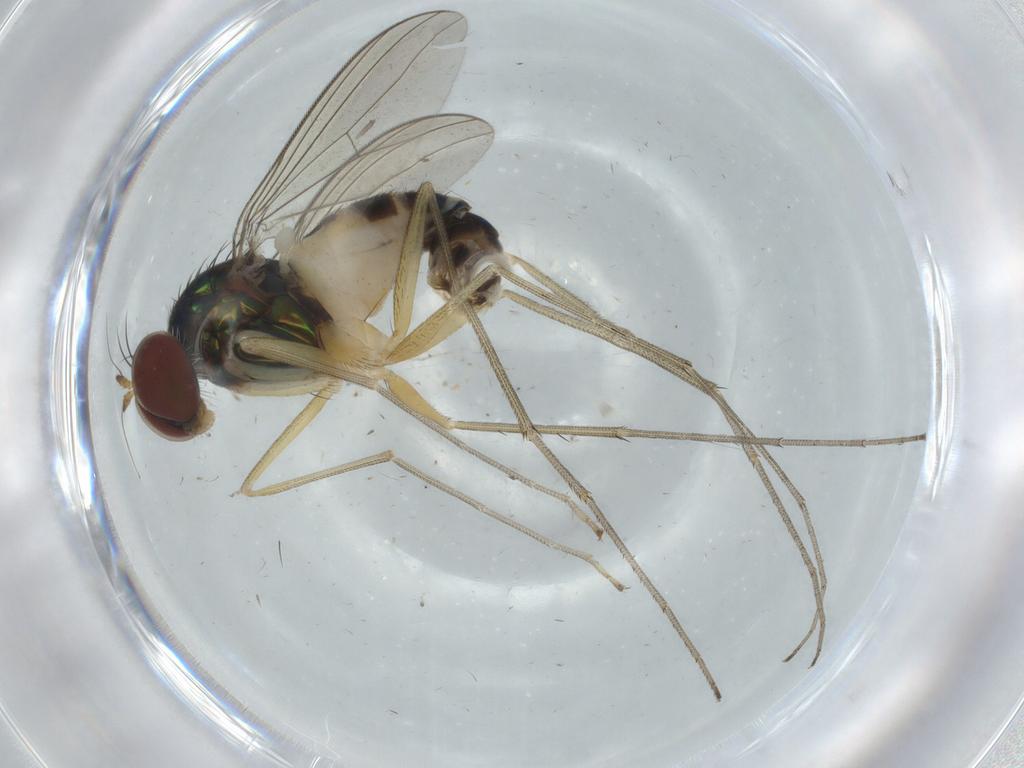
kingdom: Animalia
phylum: Arthropoda
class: Insecta
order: Diptera
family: Dolichopodidae
